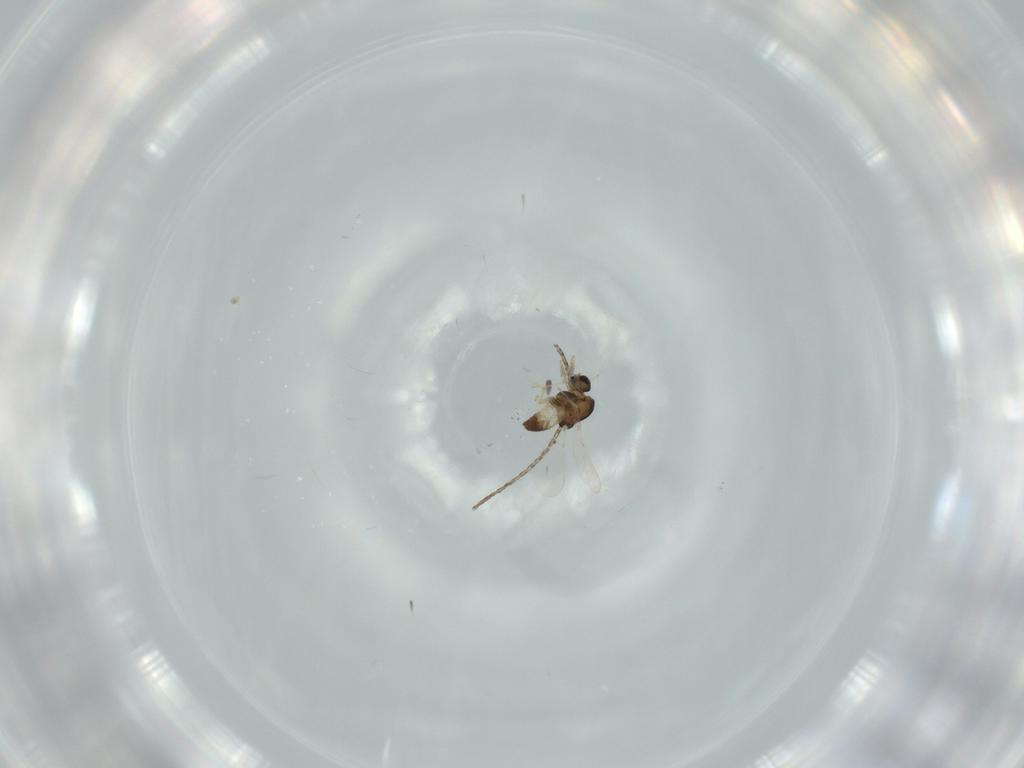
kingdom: Animalia
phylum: Arthropoda
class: Insecta
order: Diptera
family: Chironomidae
